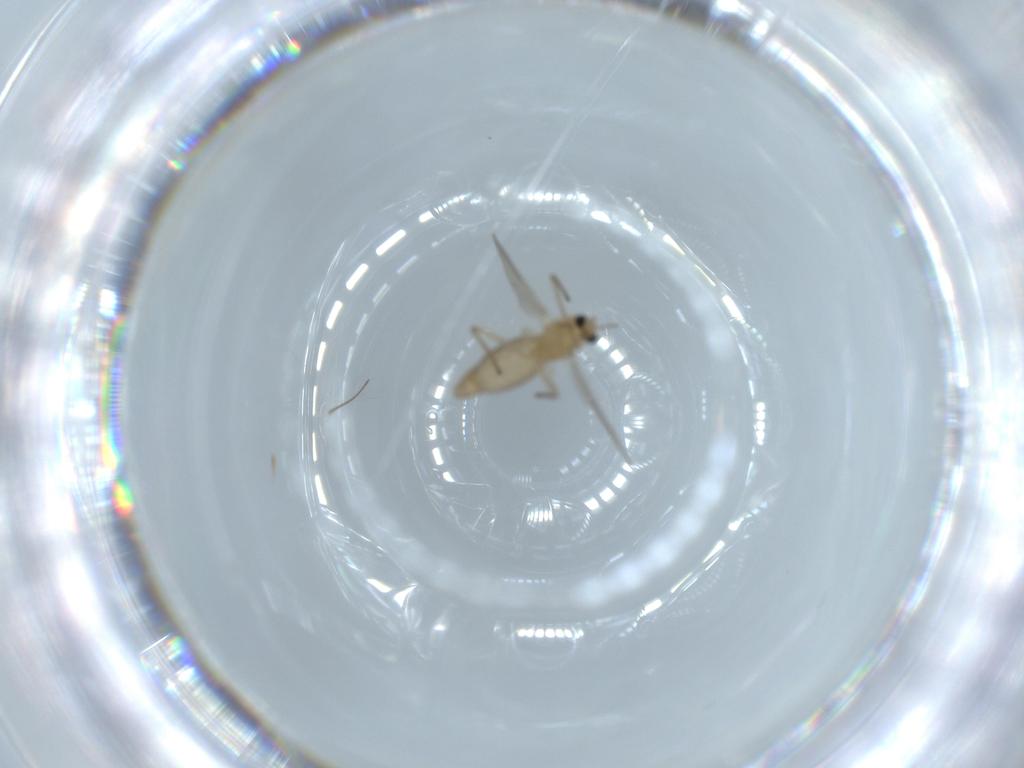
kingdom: Animalia
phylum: Arthropoda
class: Insecta
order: Diptera
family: Chironomidae
